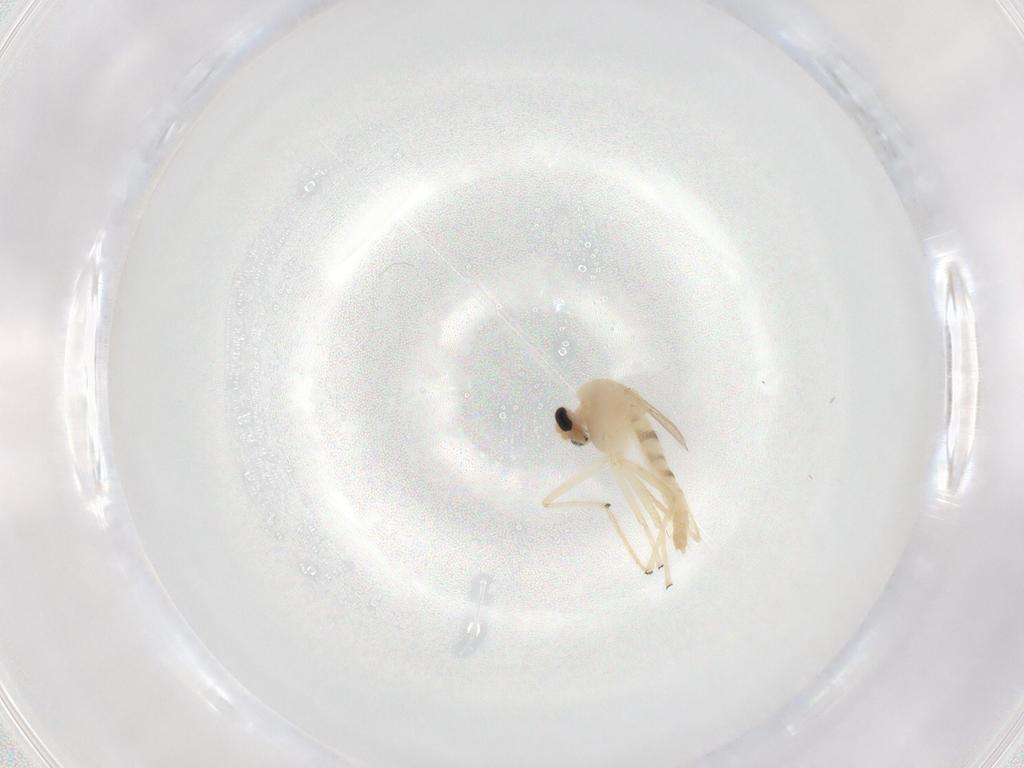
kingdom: Animalia
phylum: Arthropoda
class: Insecta
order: Diptera
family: Chironomidae
